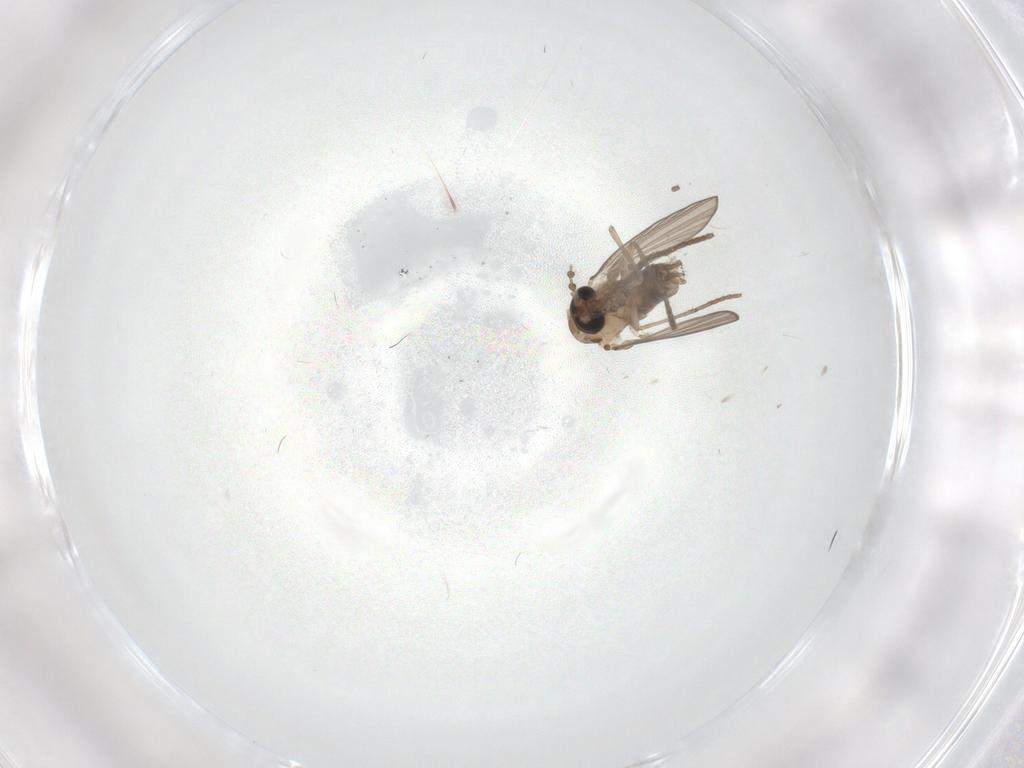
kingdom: Animalia
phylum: Arthropoda
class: Insecta
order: Diptera
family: Psychodidae
